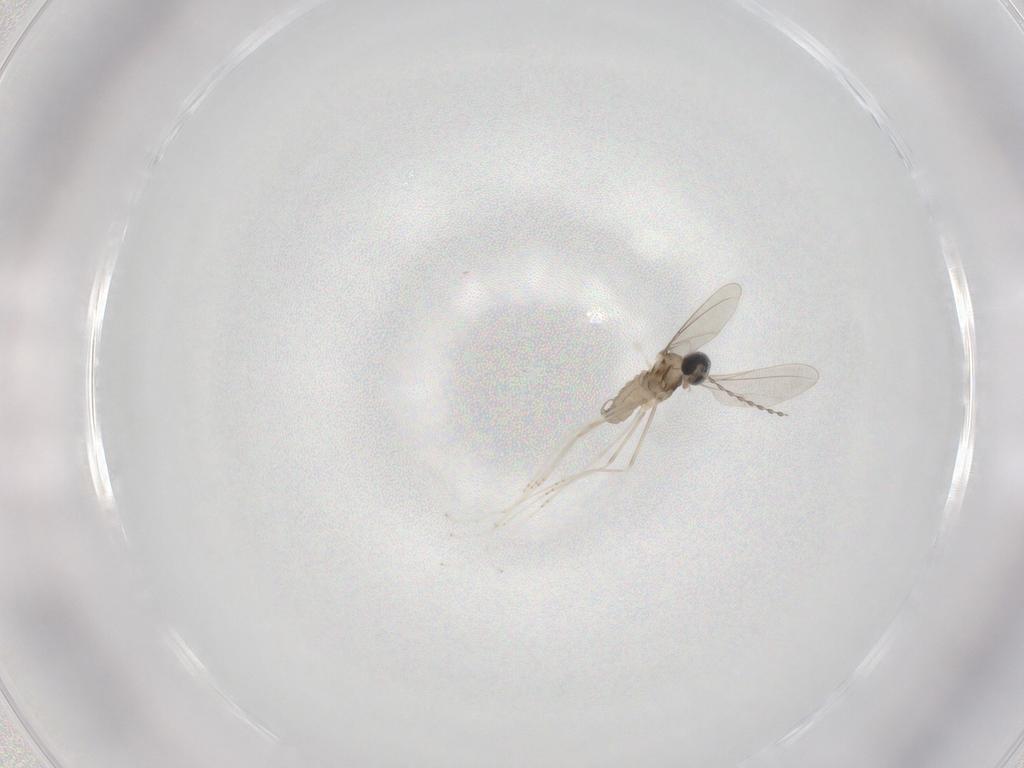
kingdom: Animalia
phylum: Arthropoda
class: Insecta
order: Diptera
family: Cecidomyiidae
